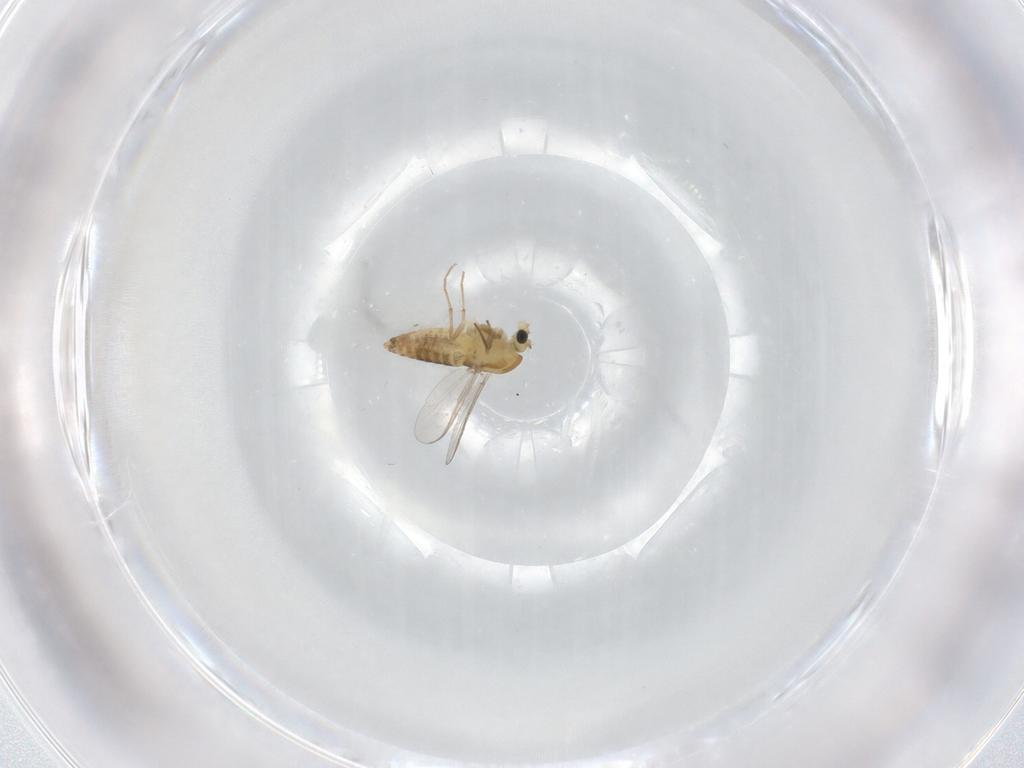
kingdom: Animalia
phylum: Arthropoda
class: Insecta
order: Diptera
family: Chironomidae
